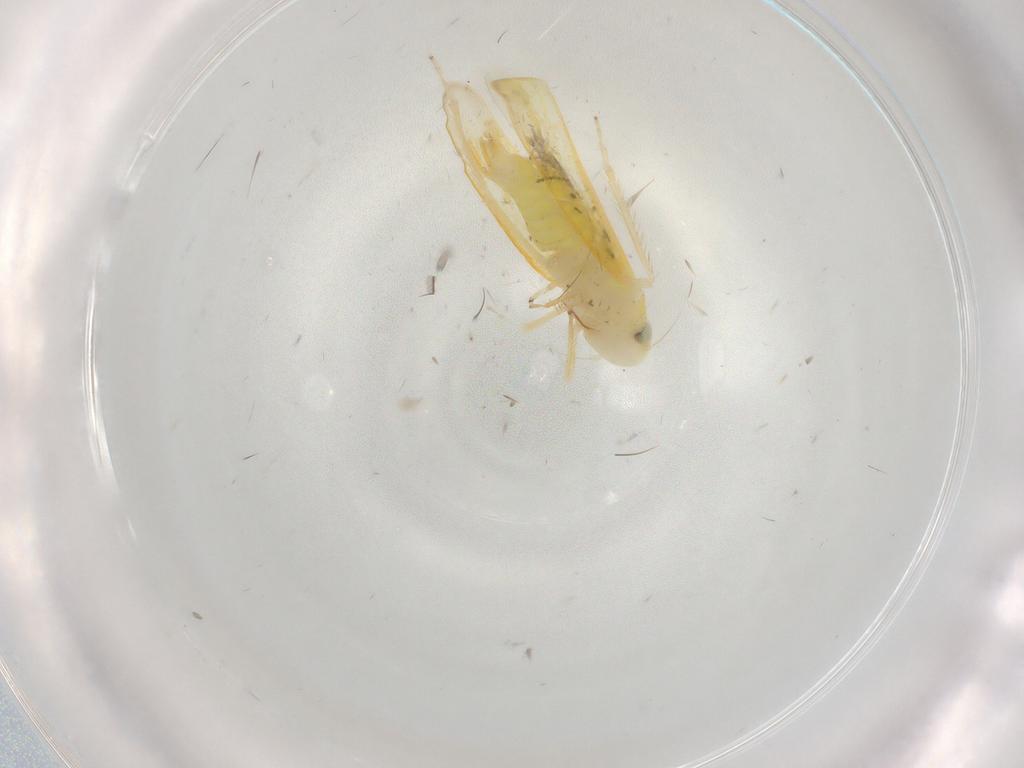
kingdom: Animalia
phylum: Arthropoda
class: Insecta
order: Hemiptera
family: Cicadellidae
